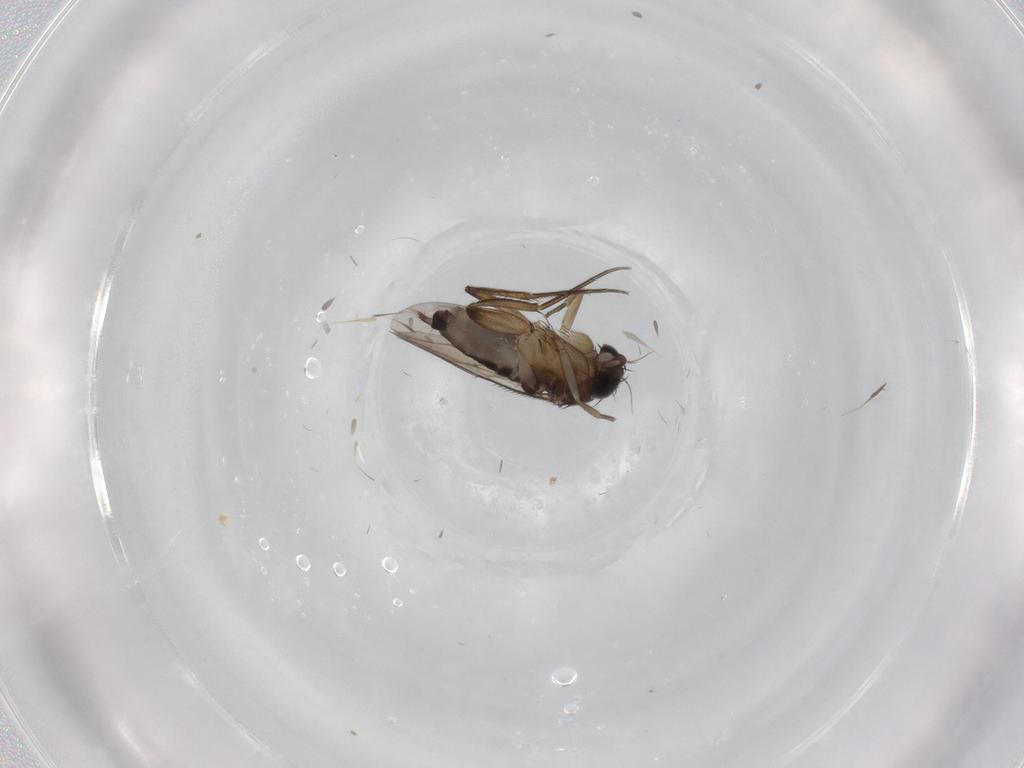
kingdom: Animalia
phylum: Arthropoda
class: Insecta
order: Diptera
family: Phoridae
